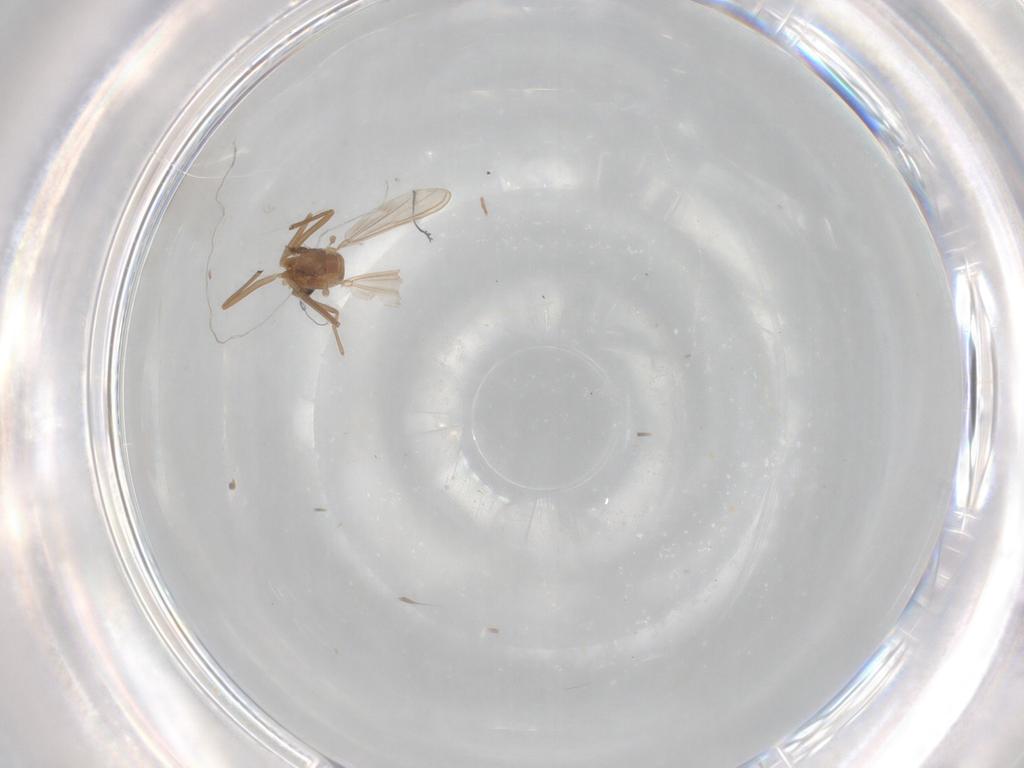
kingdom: Animalia
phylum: Arthropoda
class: Insecta
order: Diptera
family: Chironomidae
